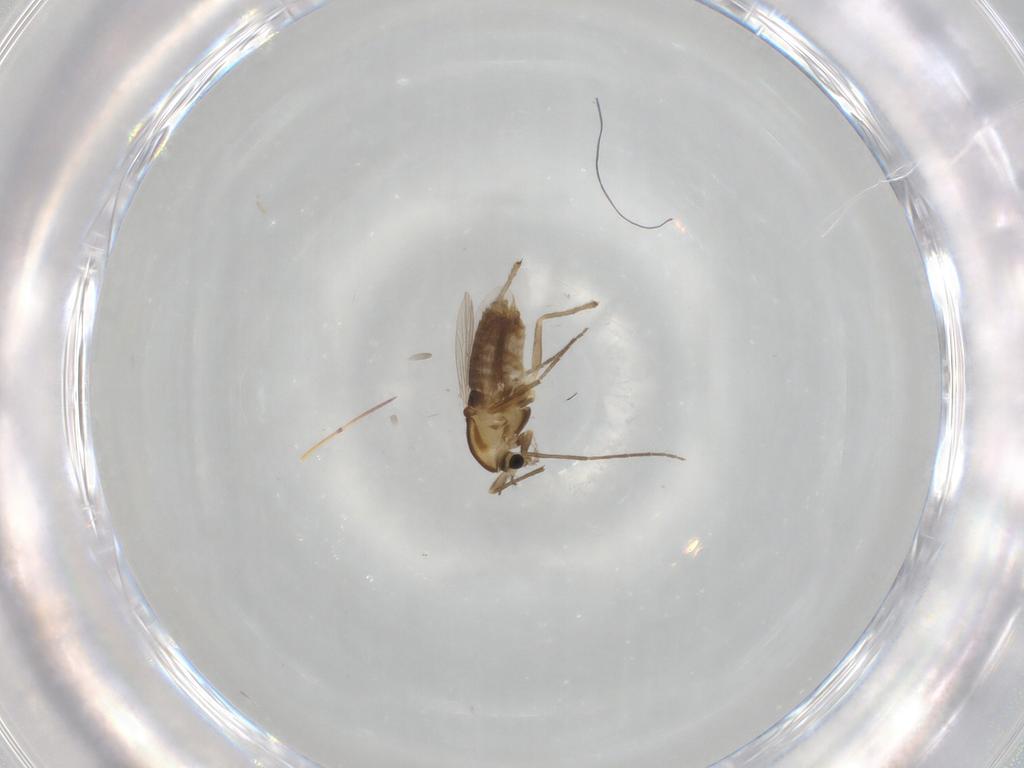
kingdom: Animalia
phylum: Arthropoda
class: Insecta
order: Diptera
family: Chironomidae
